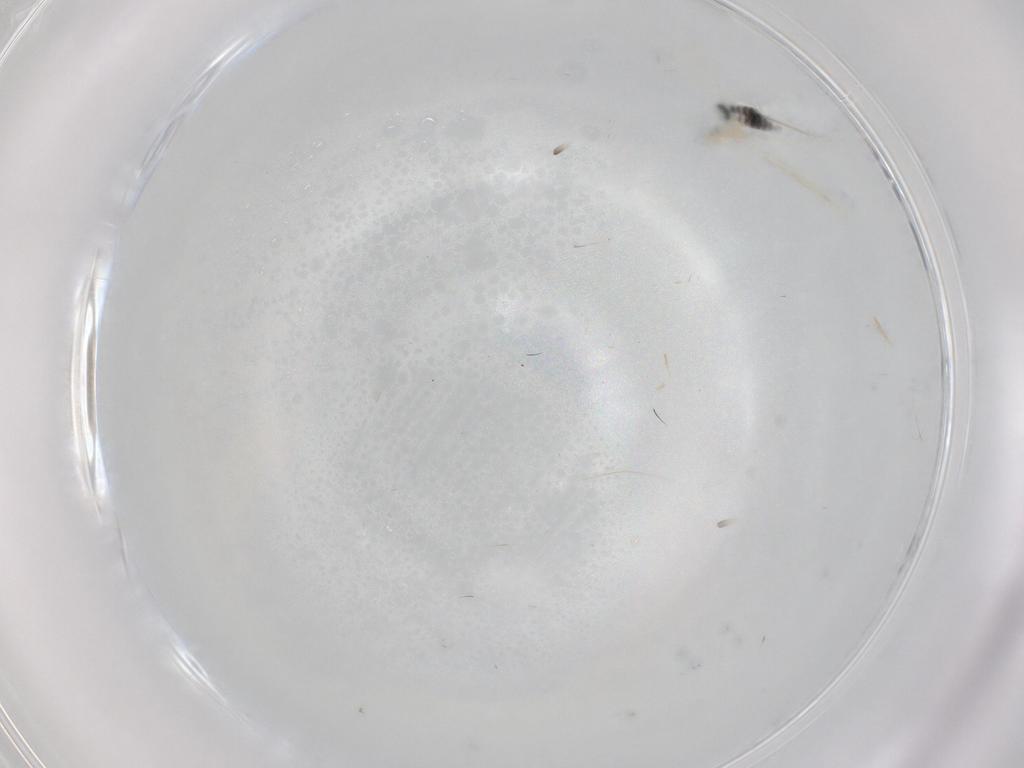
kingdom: Animalia
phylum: Arthropoda
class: Insecta
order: Diptera
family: Cecidomyiidae
